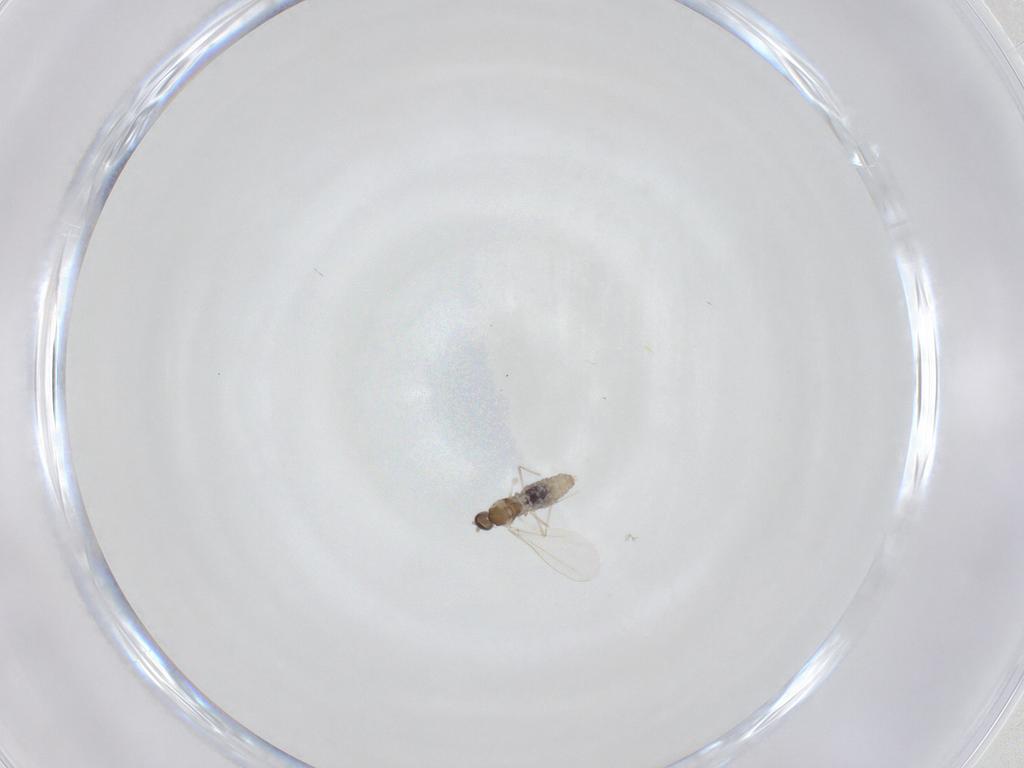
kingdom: Animalia
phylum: Arthropoda
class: Insecta
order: Diptera
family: Cecidomyiidae
